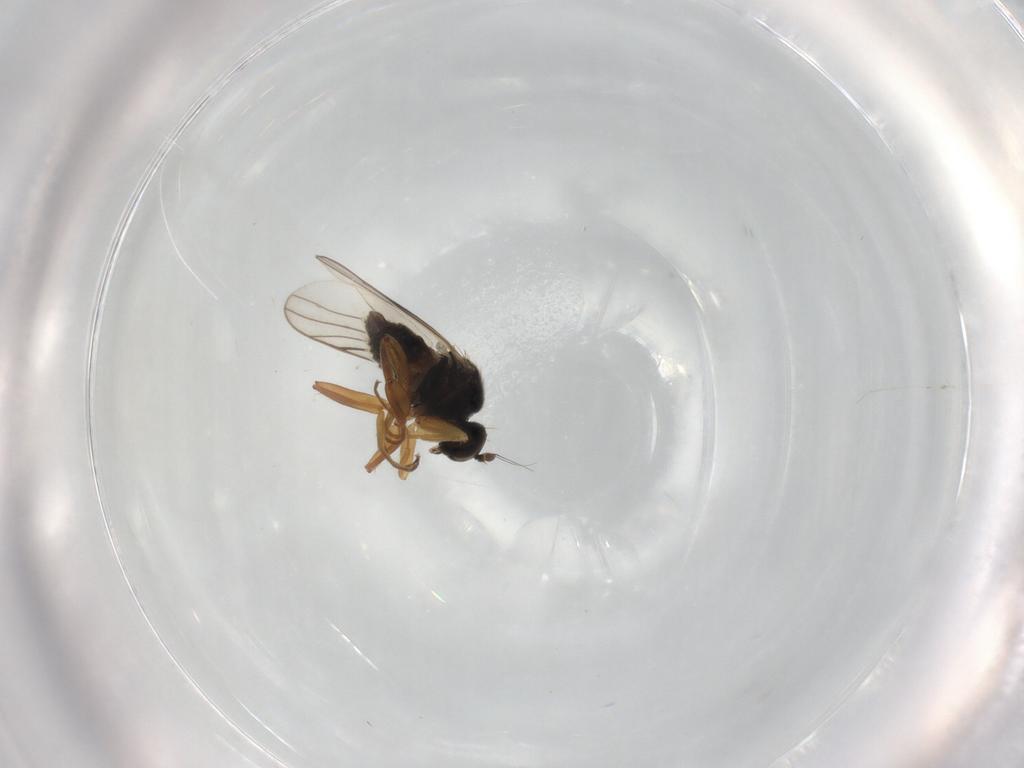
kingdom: Animalia
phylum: Arthropoda
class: Insecta
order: Diptera
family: Hybotidae
